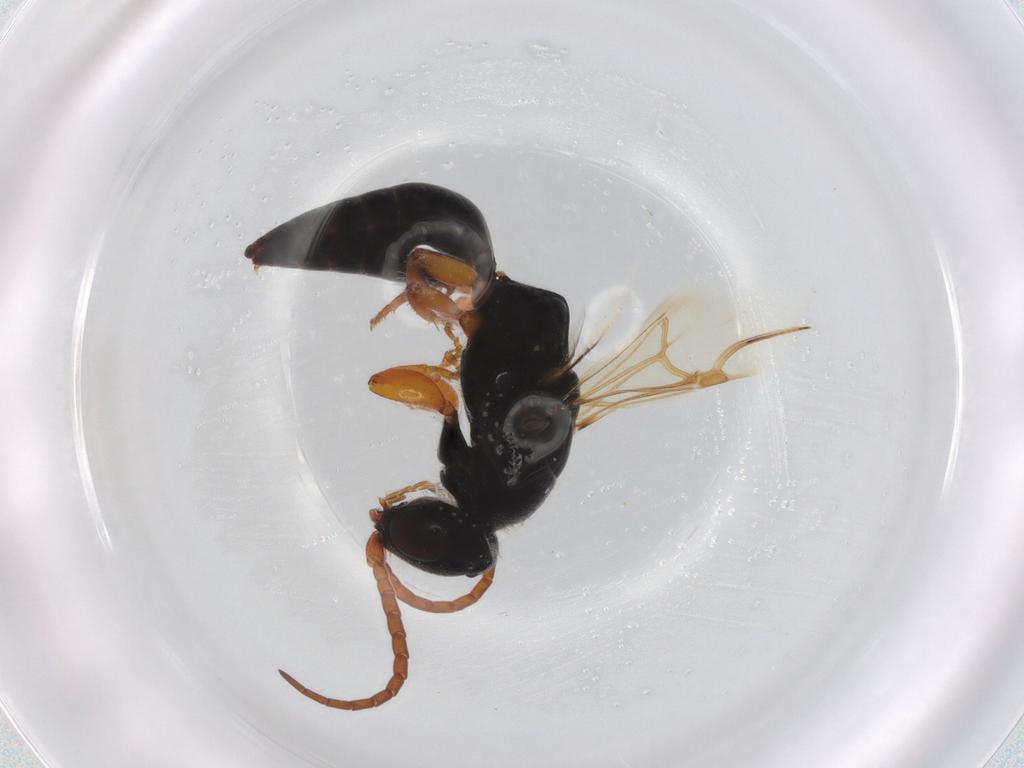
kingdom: Animalia
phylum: Arthropoda
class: Insecta
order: Hymenoptera
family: Bethylidae
